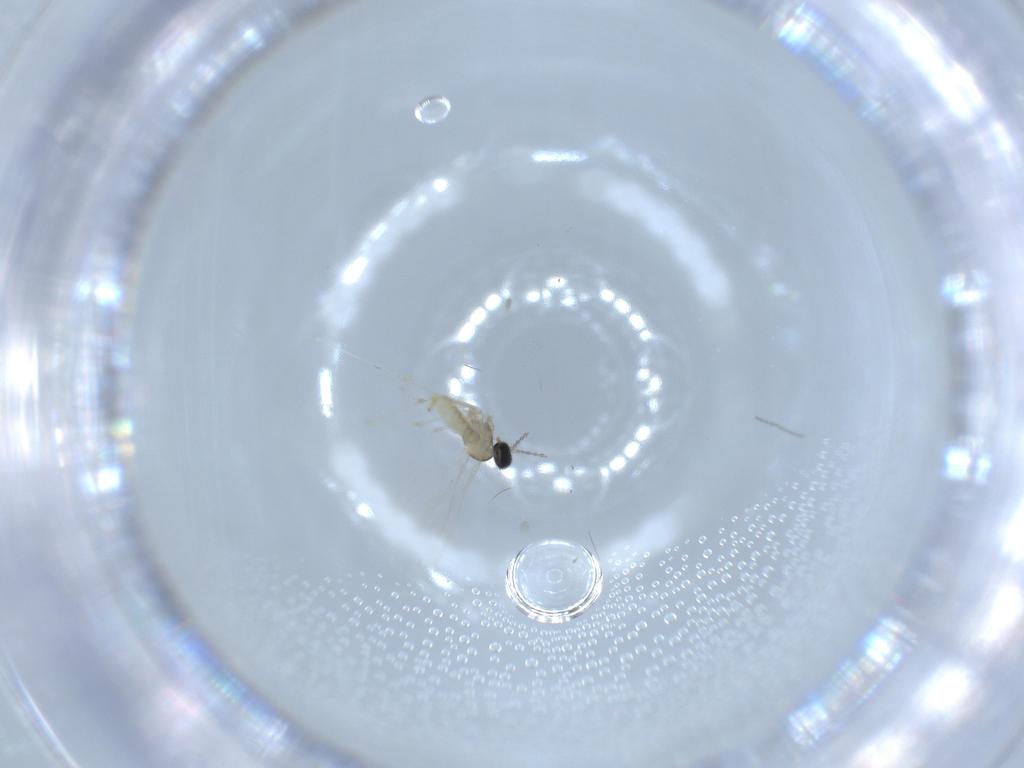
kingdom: Animalia
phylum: Arthropoda
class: Insecta
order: Diptera
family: Cecidomyiidae
